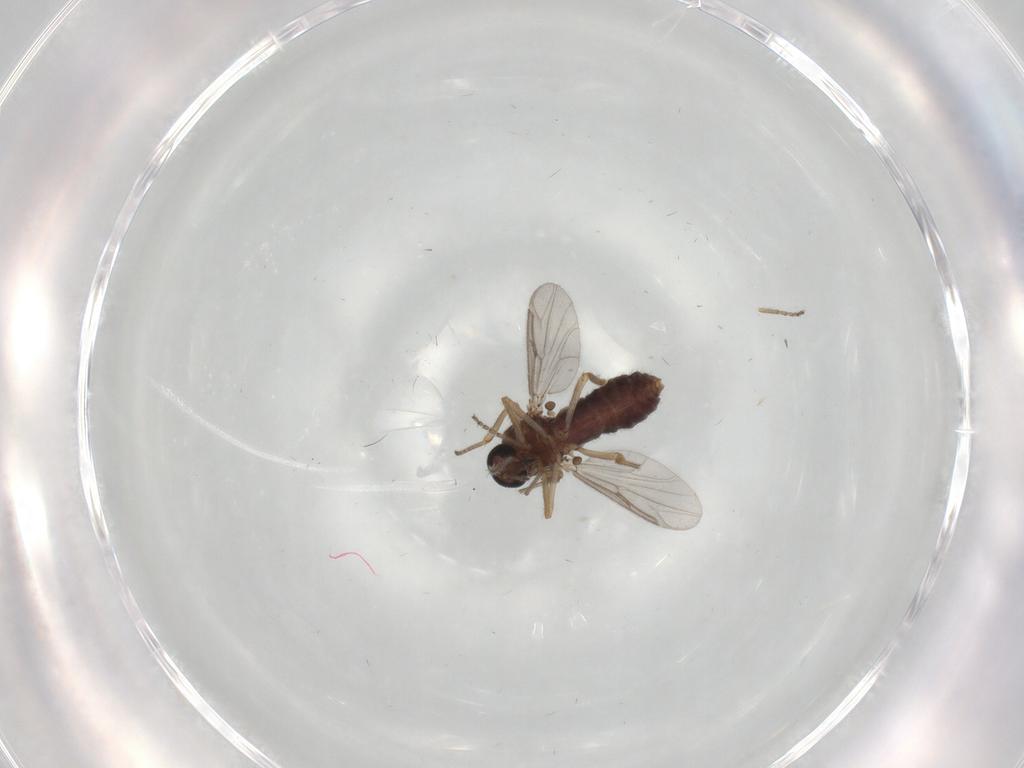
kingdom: Animalia
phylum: Arthropoda
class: Insecta
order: Diptera
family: Ceratopogonidae
